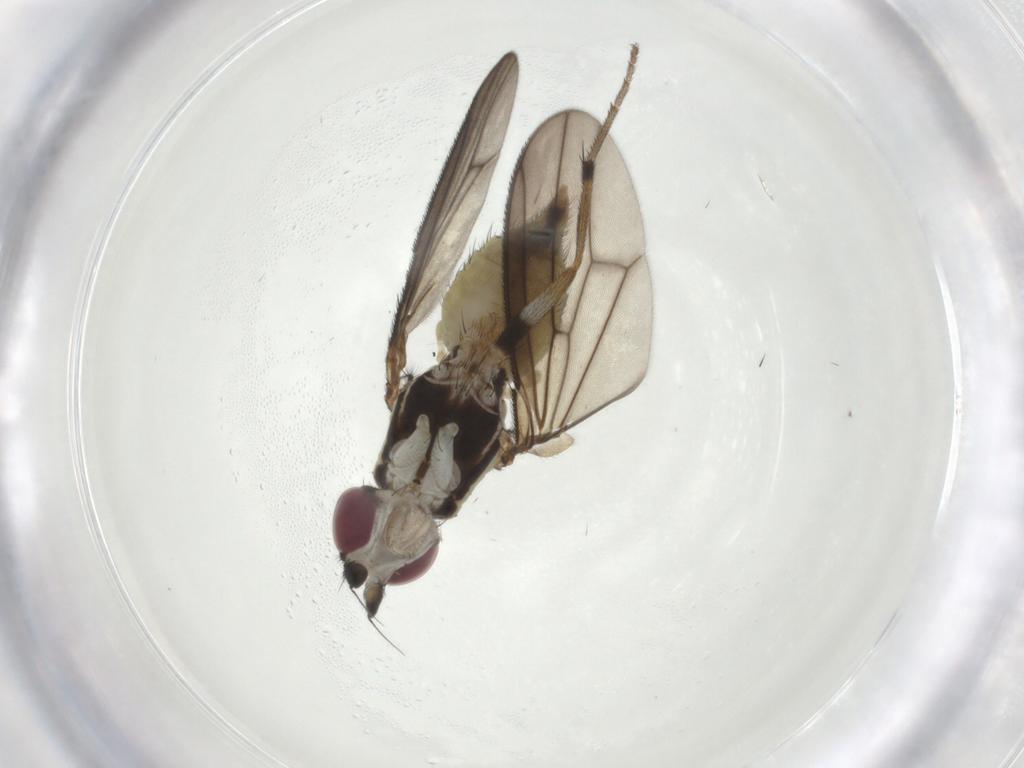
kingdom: Animalia
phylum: Arthropoda
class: Insecta
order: Diptera
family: Pseudopomyzidae
